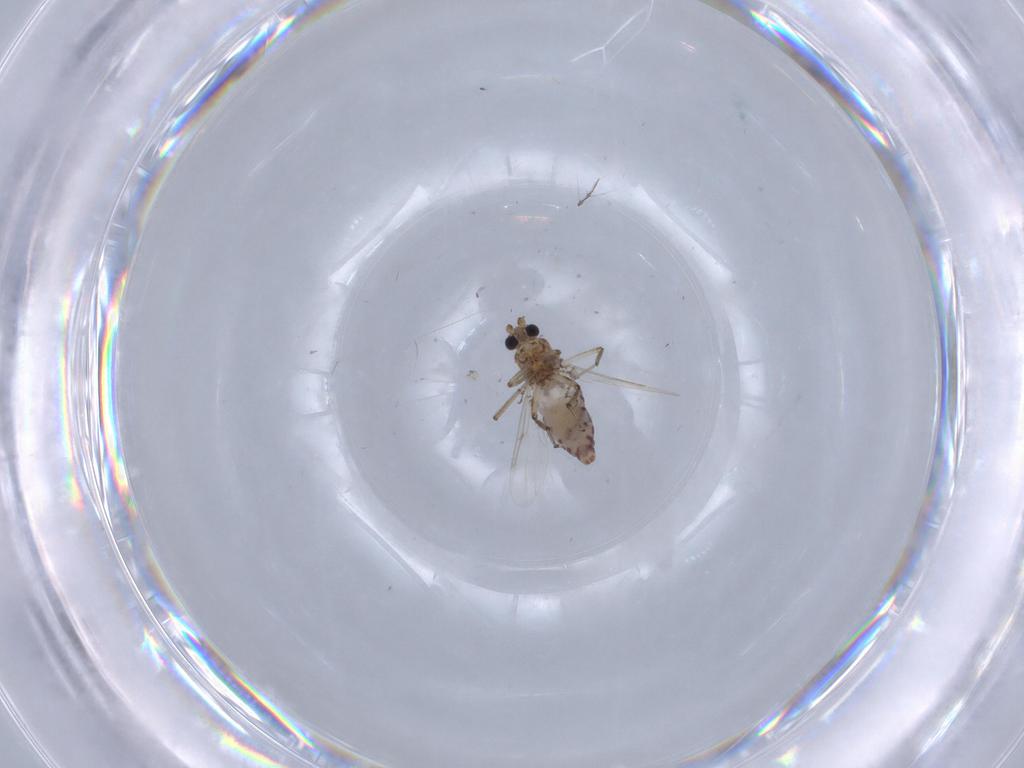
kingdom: Animalia
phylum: Arthropoda
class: Insecta
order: Diptera
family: Ceratopogonidae
